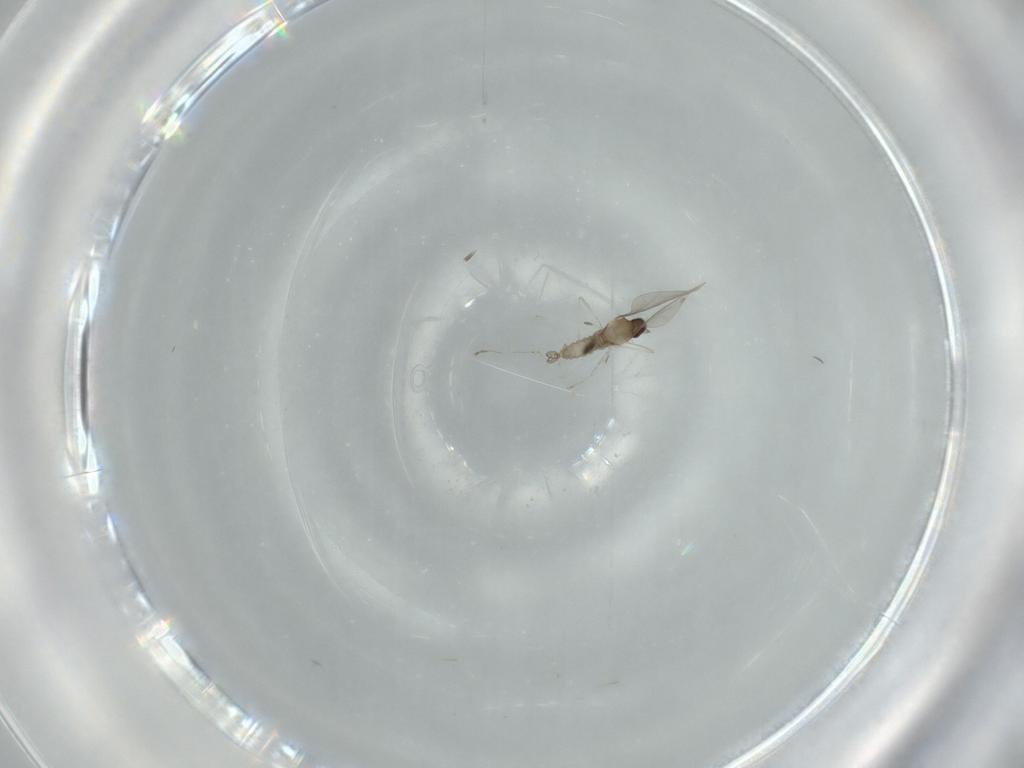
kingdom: Animalia
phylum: Arthropoda
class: Insecta
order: Diptera
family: Cecidomyiidae
